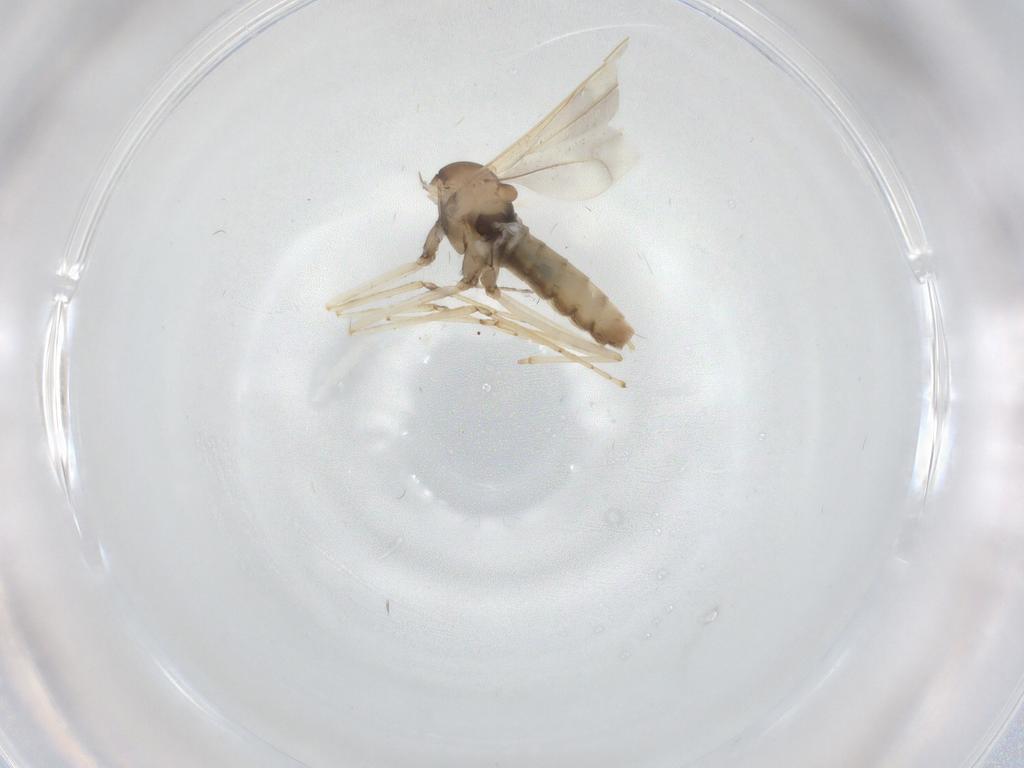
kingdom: Animalia
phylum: Arthropoda
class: Insecta
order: Diptera
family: Cecidomyiidae
